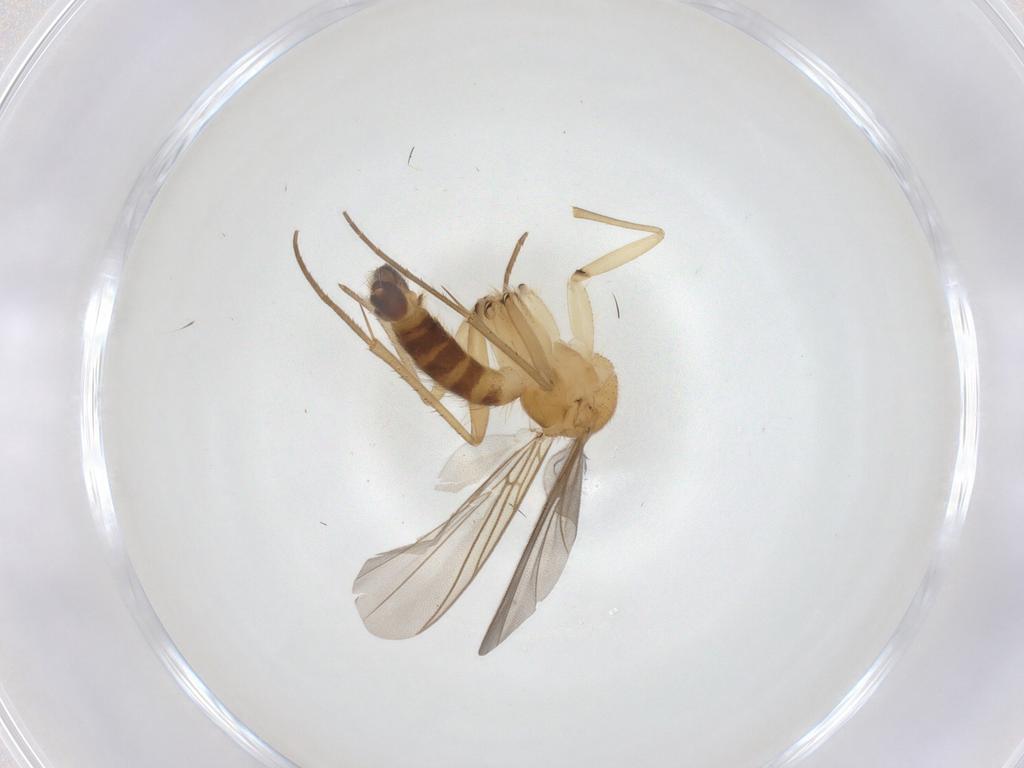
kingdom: Animalia
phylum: Arthropoda
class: Insecta
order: Diptera
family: Mycetophilidae
